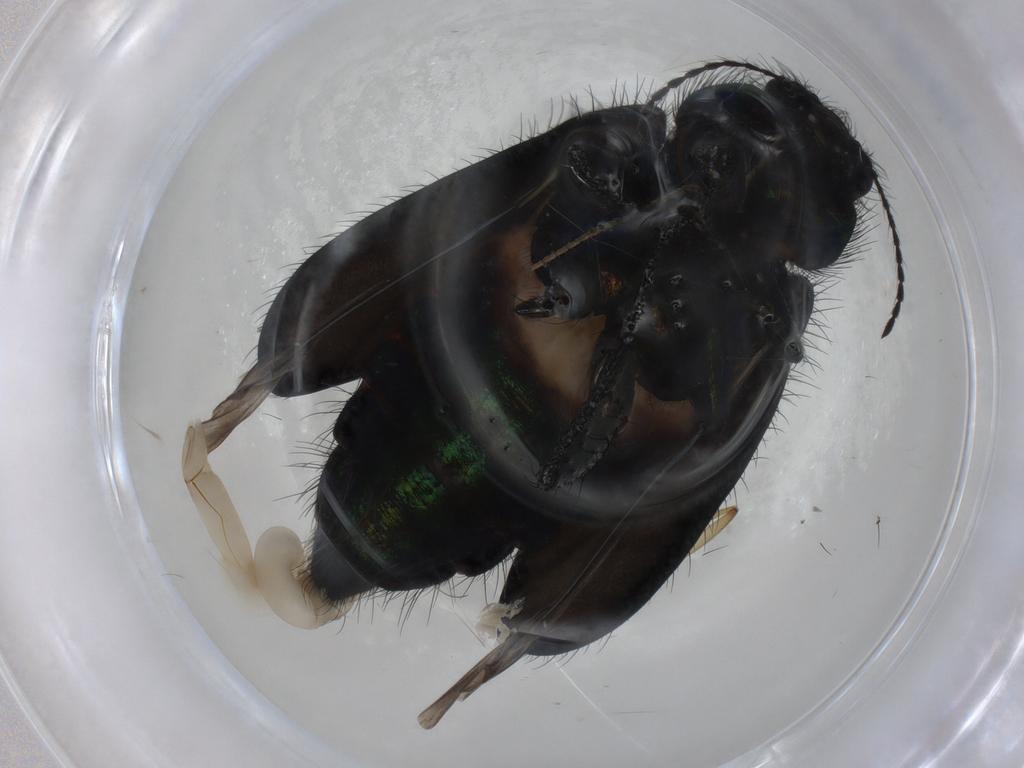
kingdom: Animalia
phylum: Arthropoda
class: Insecta
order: Coleoptera
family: Melyridae
